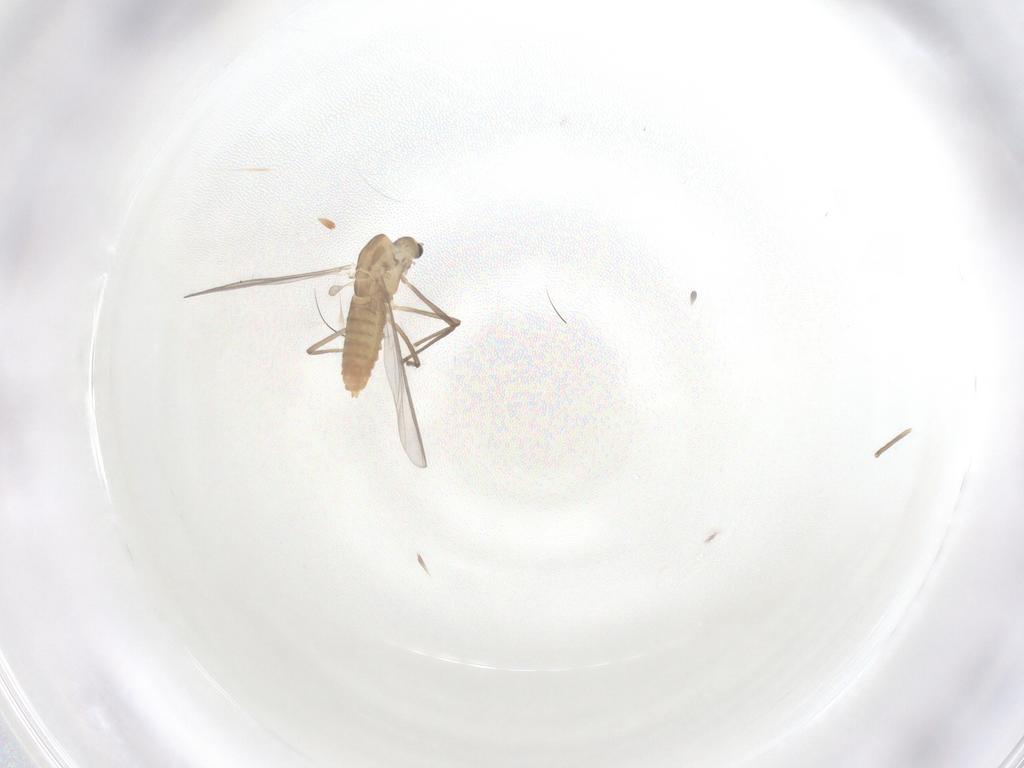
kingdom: Animalia
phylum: Arthropoda
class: Insecta
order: Diptera
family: Chironomidae
